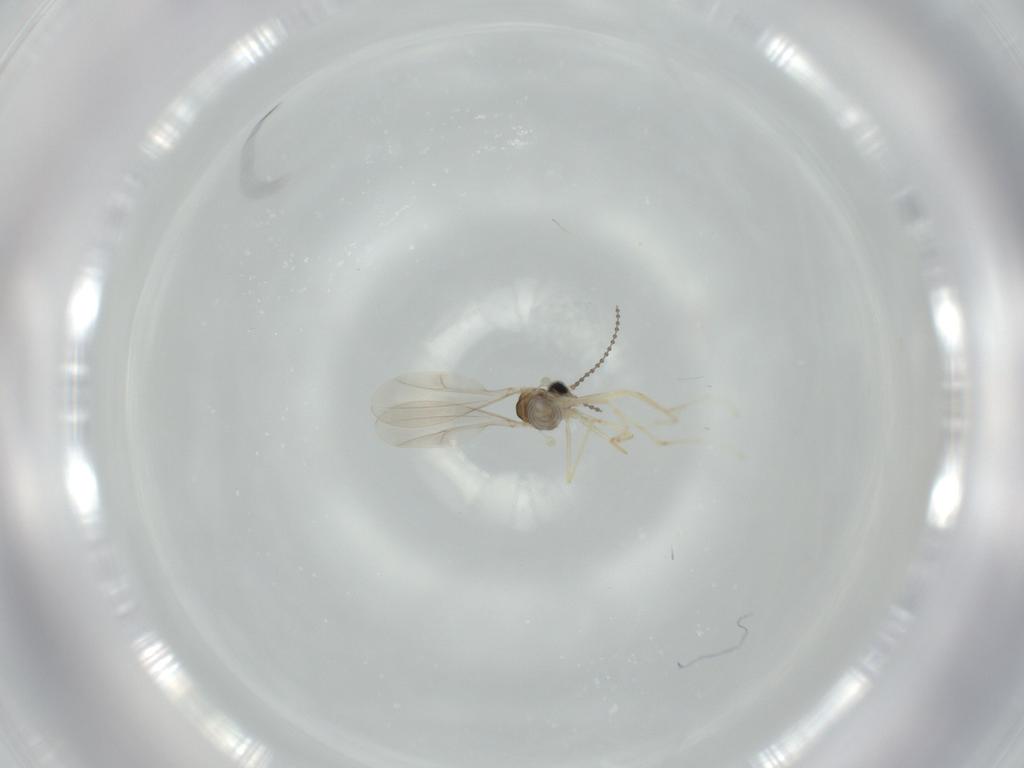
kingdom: Animalia
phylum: Arthropoda
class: Insecta
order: Diptera
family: Cecidomyiidae
